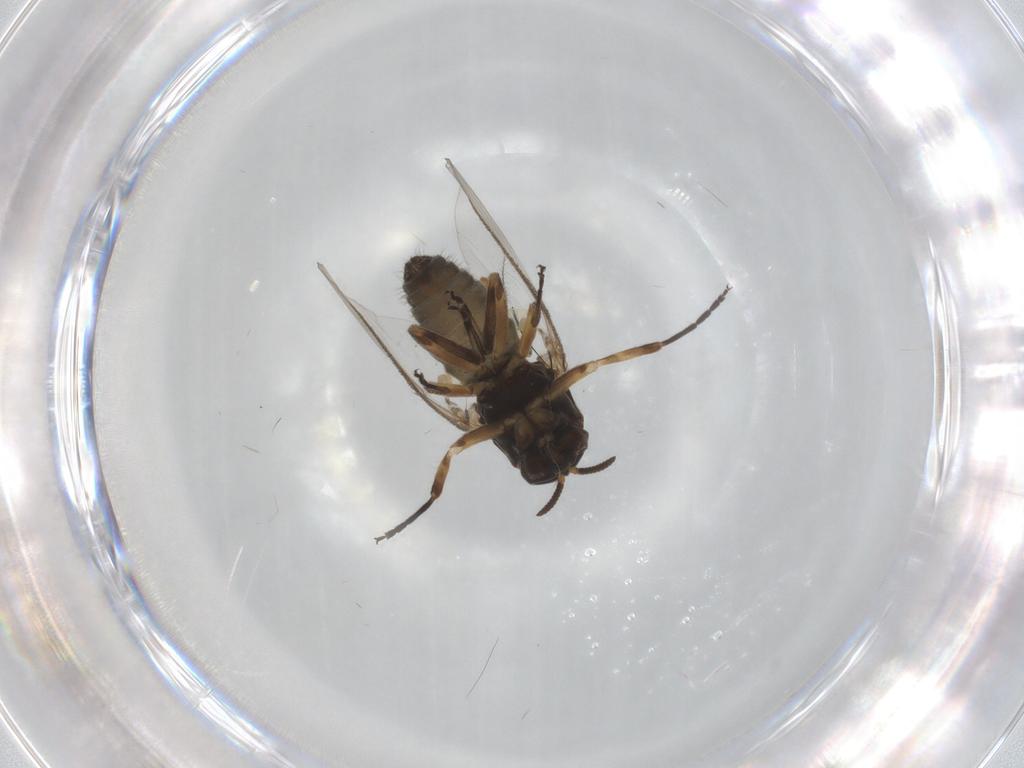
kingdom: Animalia
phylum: Arthropoda
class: Insecta
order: Diptera
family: Ceratopogonidae
